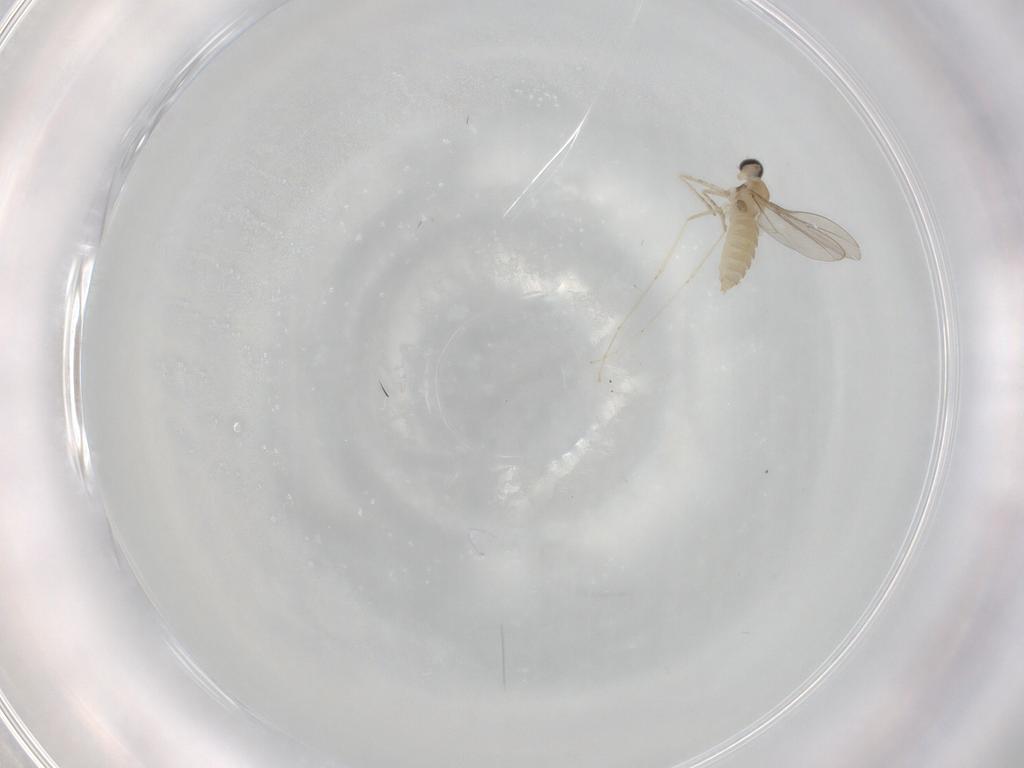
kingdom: Animalia
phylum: Arthropoda
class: Insecta
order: Diptera
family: Cecidomyiidae
